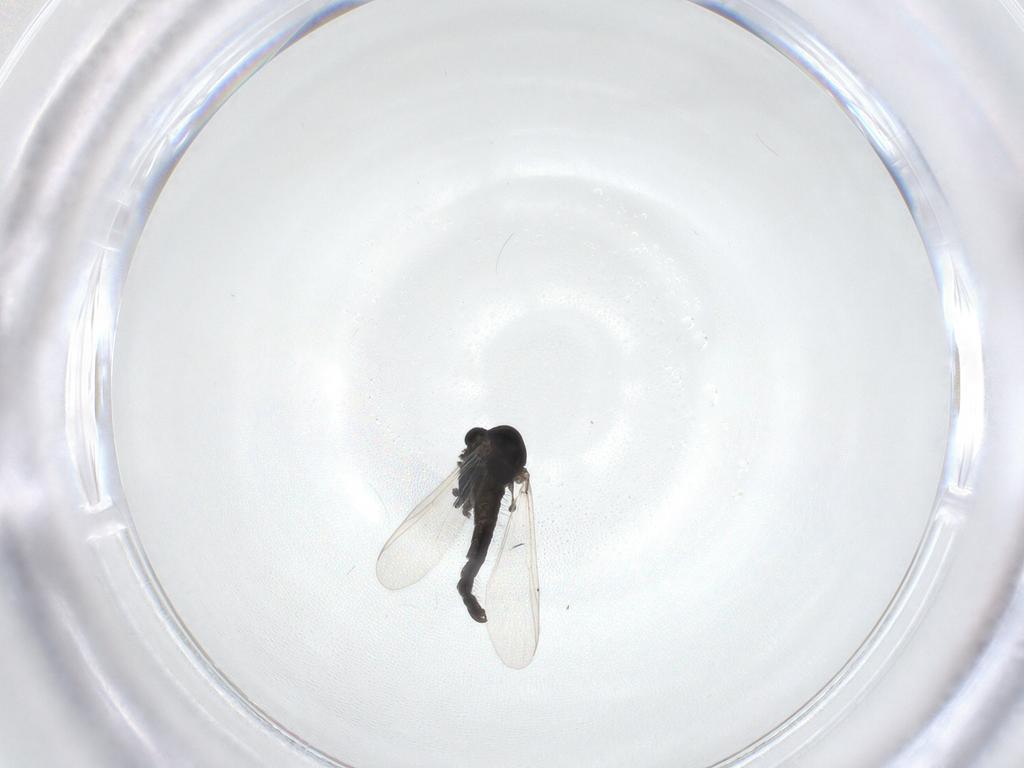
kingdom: Animalia
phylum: Arthropoda
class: Insecta
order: Diptera
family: Chironomidae
